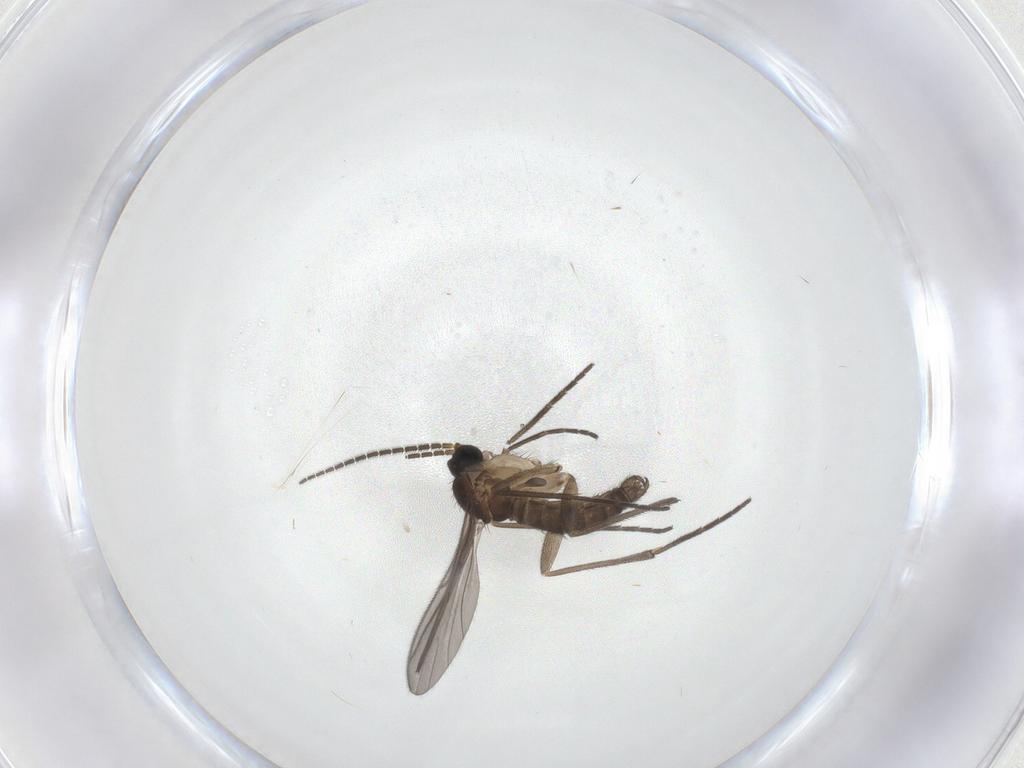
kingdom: Animalia
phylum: Arthropoda
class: Insecta
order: Diptera
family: Sciaridae
